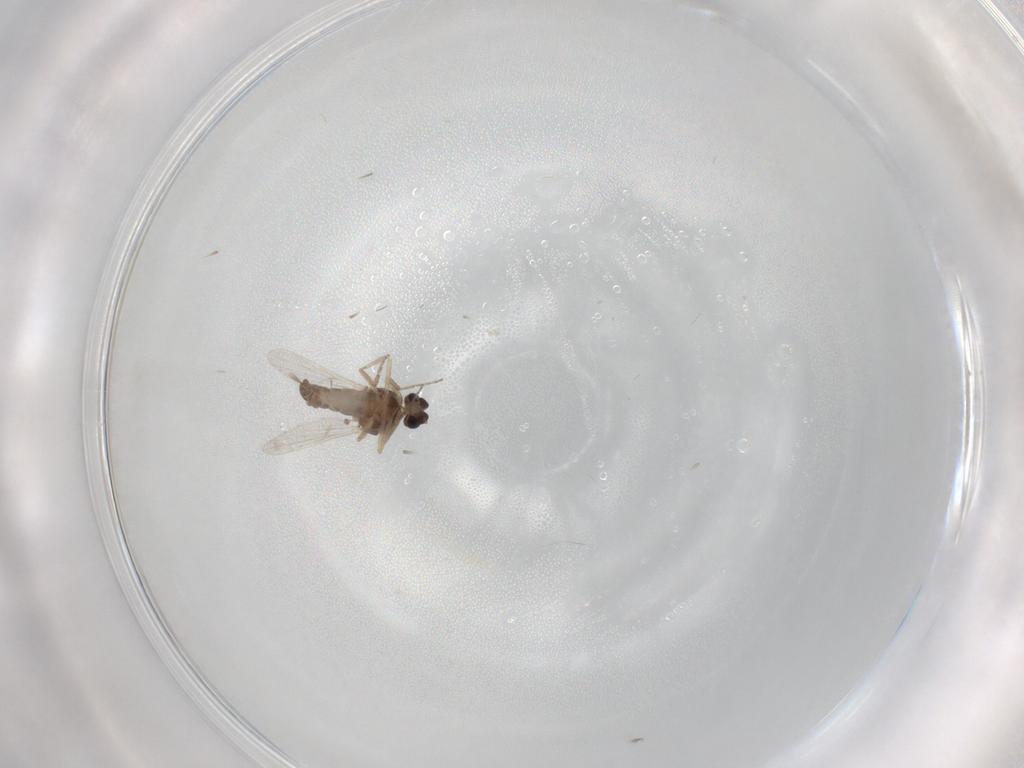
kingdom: Animalia
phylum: Arthropoda
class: Insecta
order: Diptera
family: Ceratopogonidae
